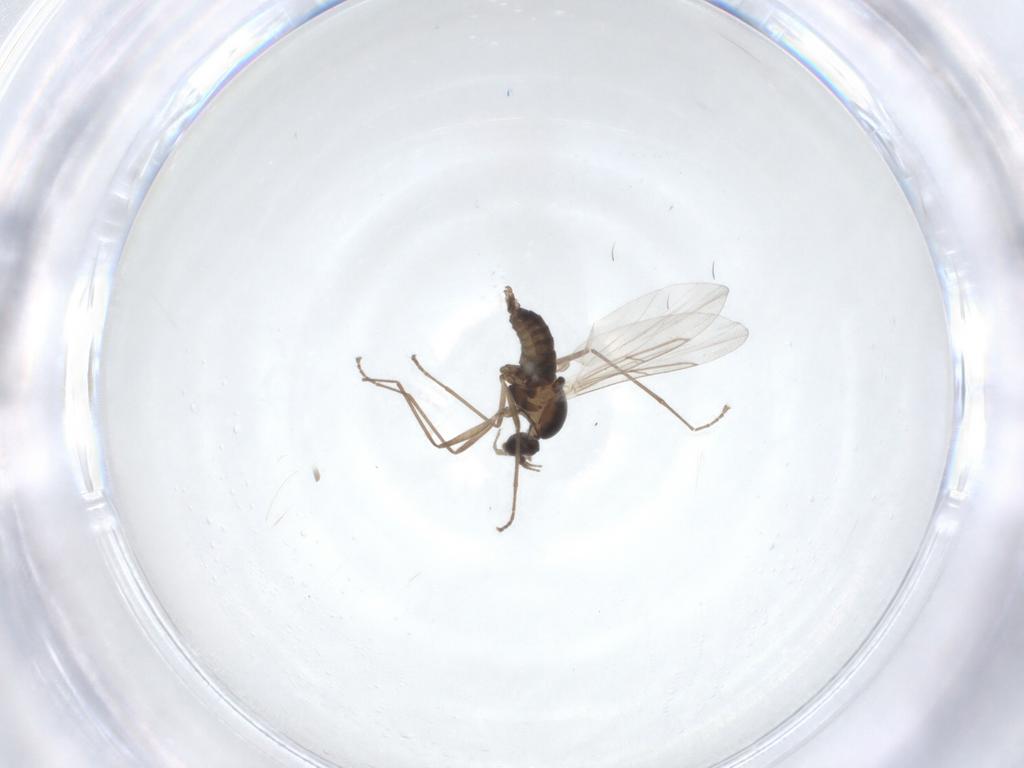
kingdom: Animalia
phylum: Arthropoda
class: Insecta
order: Diptera
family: Cecidomyiidae
